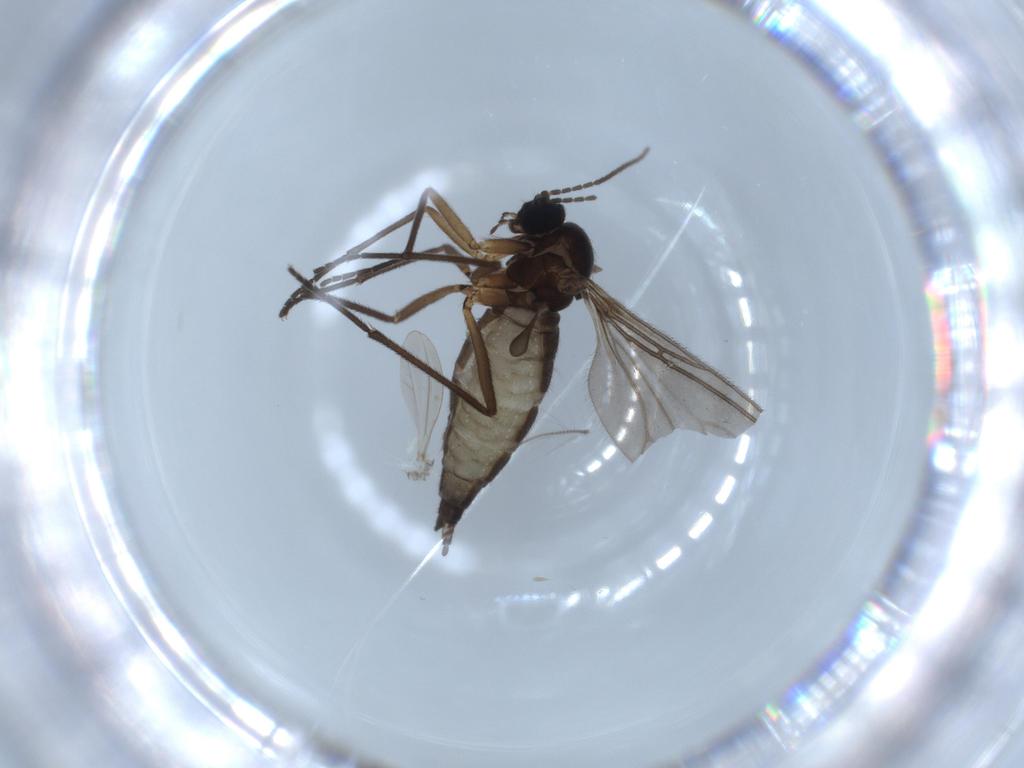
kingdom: Animalia
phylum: Arthropoda
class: Insecta
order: Diptera
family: Sciaridae
